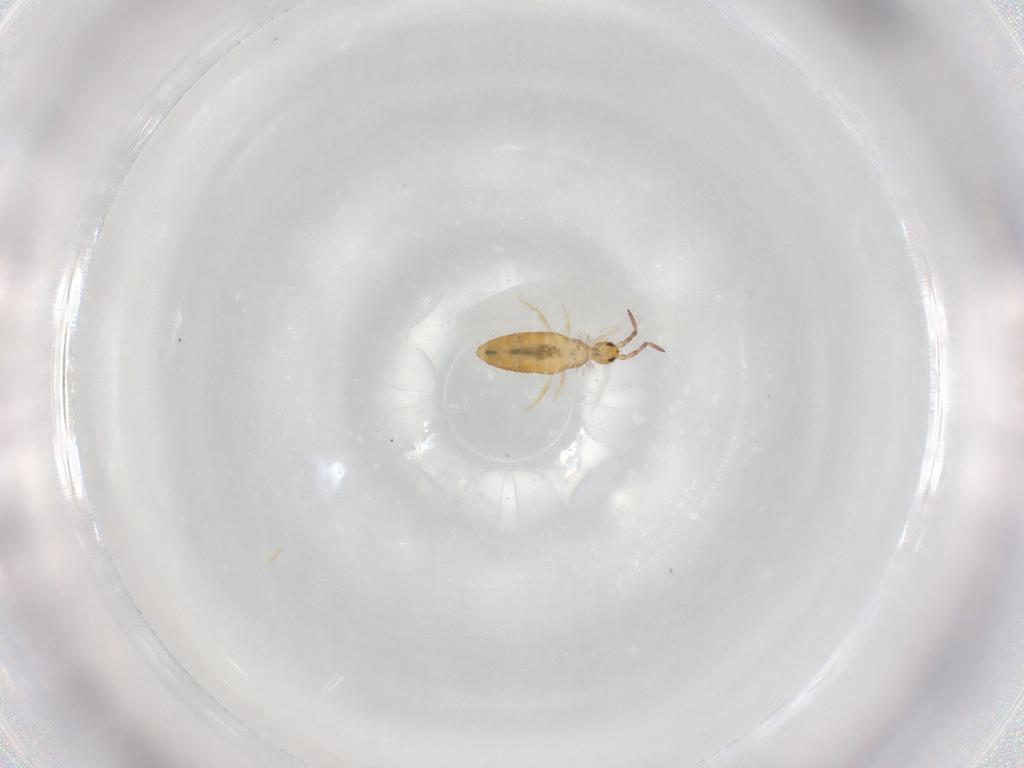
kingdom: Animalia
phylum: Arthropoda
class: Collembola
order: Entomobryomorpha
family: Entomobryidae
